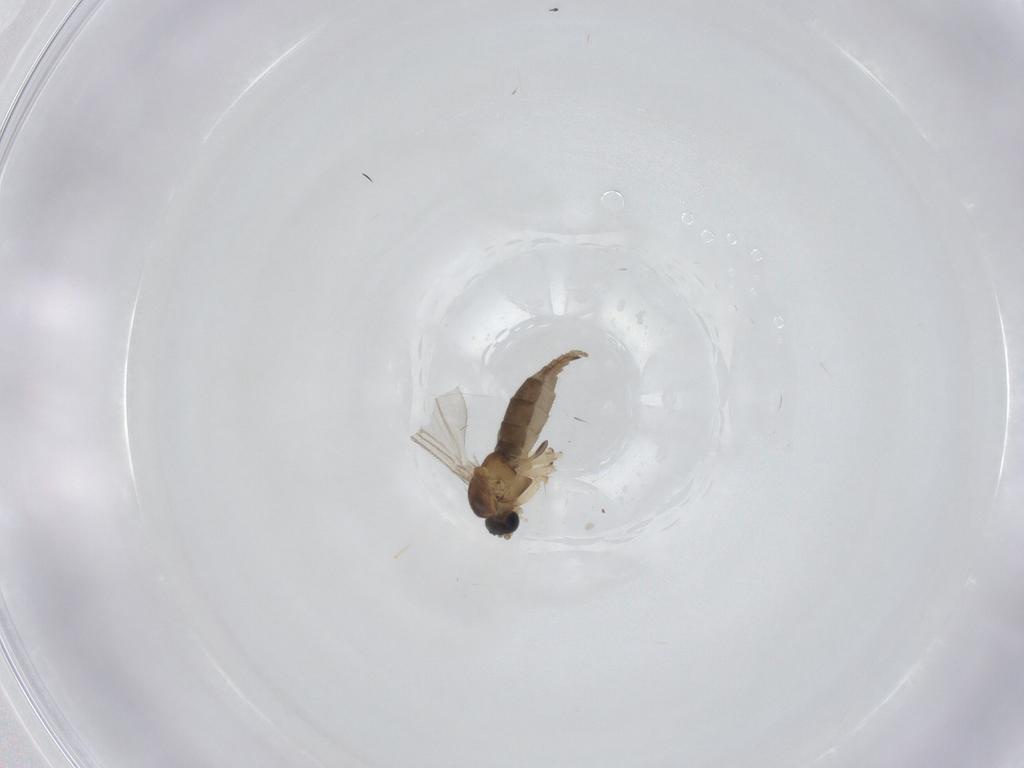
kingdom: Animalia
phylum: Arthropoda
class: Insecta
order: Diptera
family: Sciaridae
